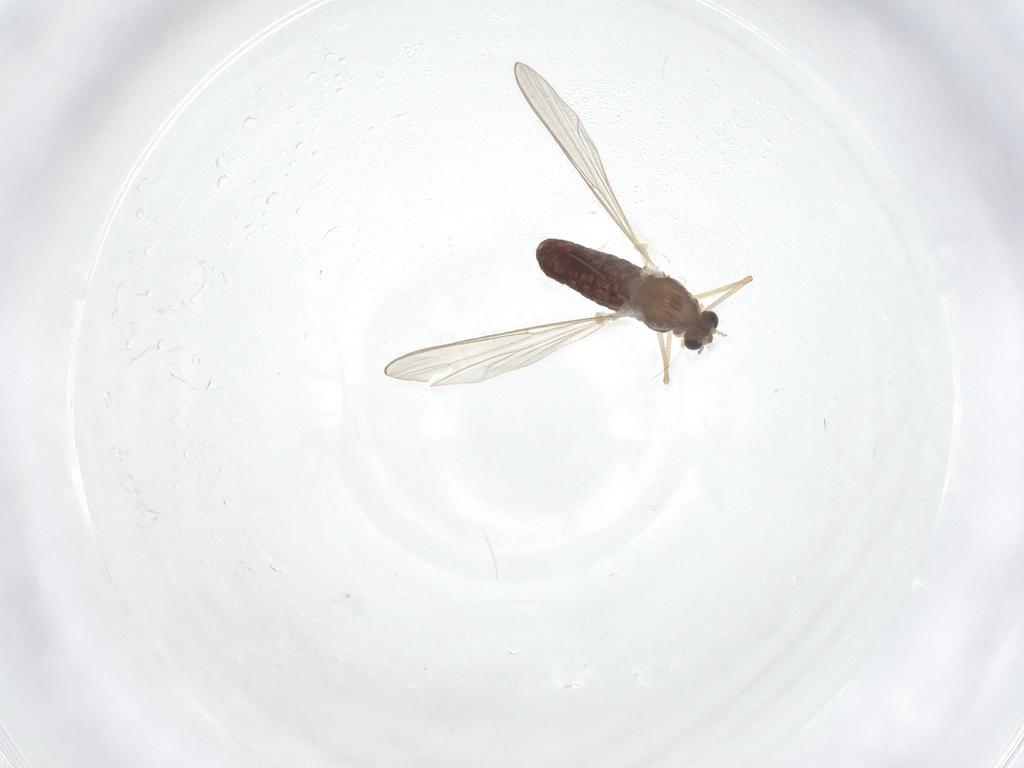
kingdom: Animalia
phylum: Arthropoda
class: Insecta
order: Diptera
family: Chironomidae
